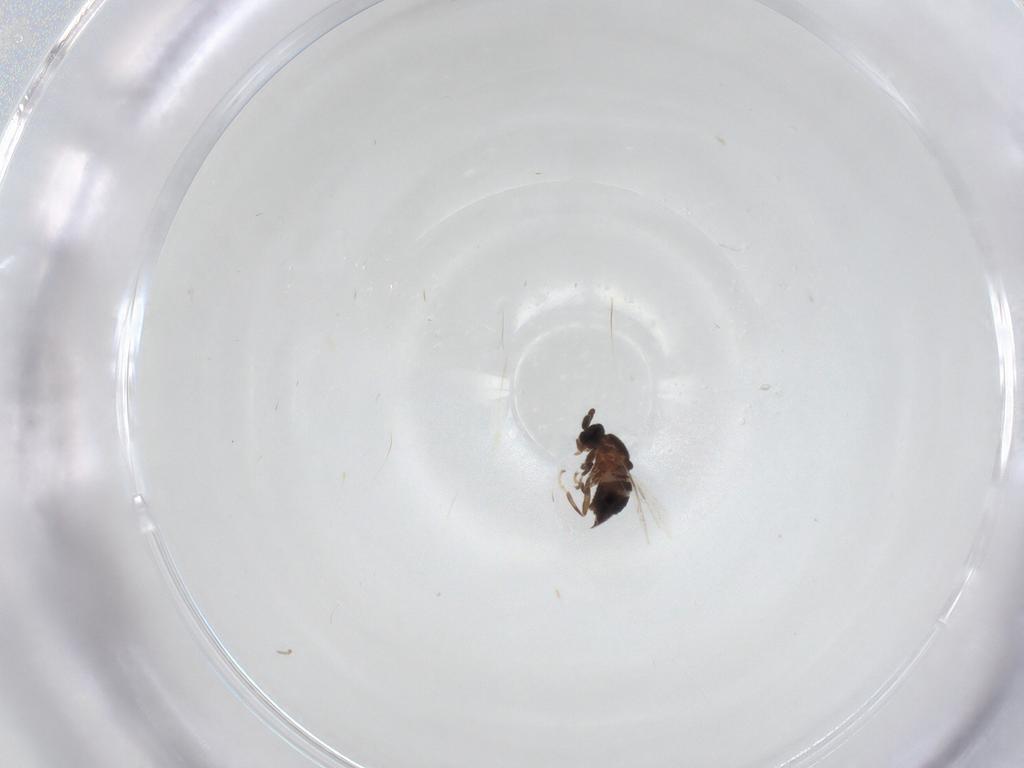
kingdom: Animalia
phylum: Arthropoda
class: Insecta
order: Diptera
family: Scatopsidae
